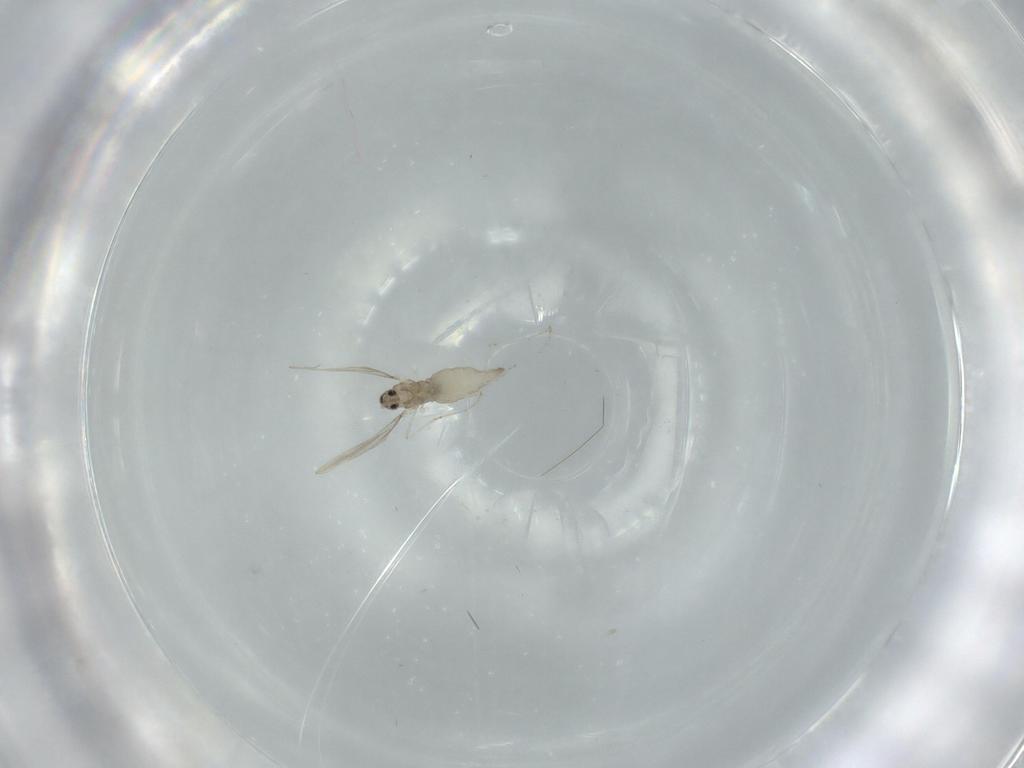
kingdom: Animalia
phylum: Arthropoda
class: Insecta
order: Diptera
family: Cecidomyiidae
